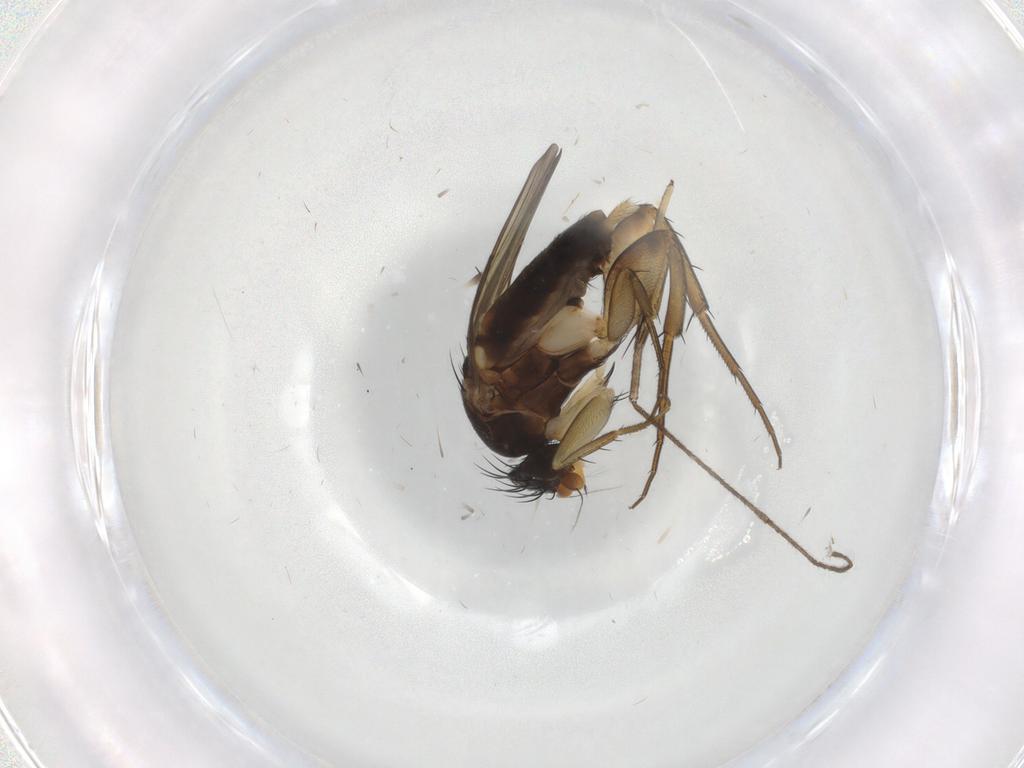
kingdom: Animalia
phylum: Arthropoda
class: Insecta
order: Diptera
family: Phoridae
